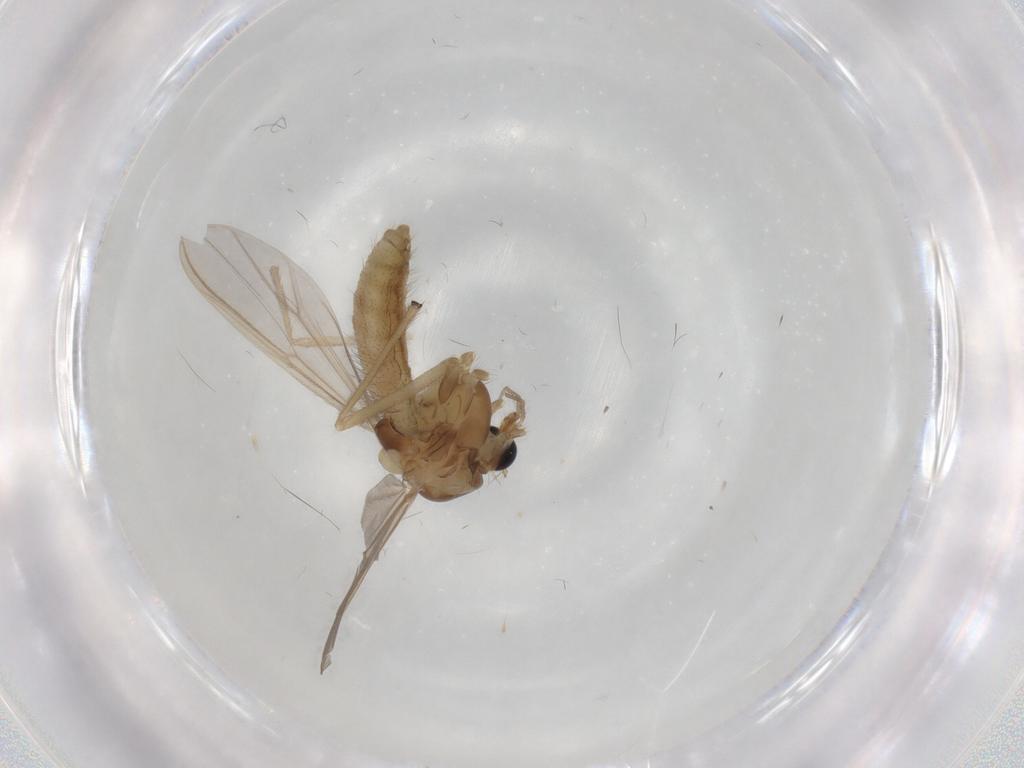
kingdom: Animalia
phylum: Arthropoda
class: Insecta
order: Diptera
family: Chironomidae
